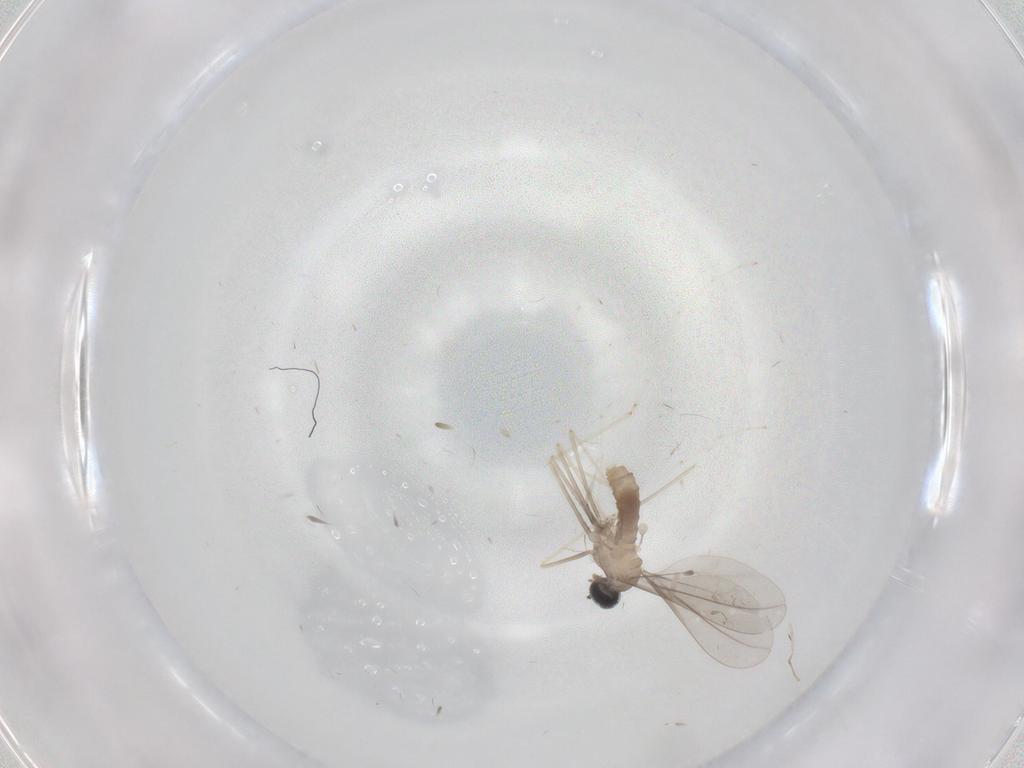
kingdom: Animalia
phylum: Arthropoda
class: Insecta
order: Diptera
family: Cecidomyiidae
